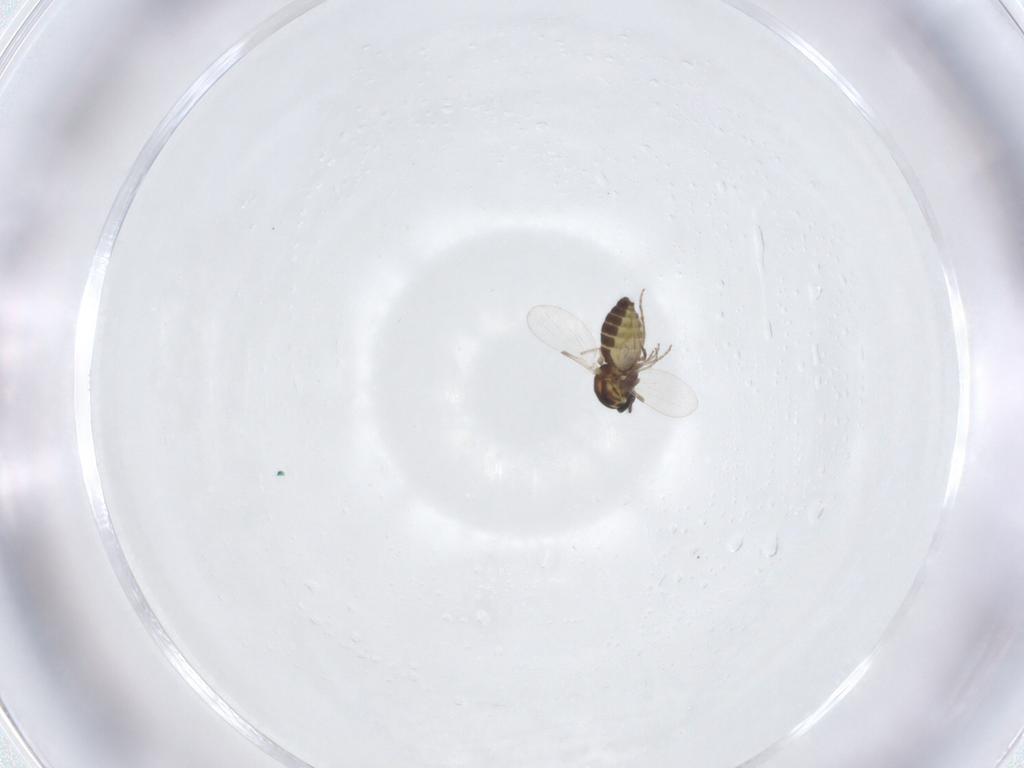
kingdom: Animalia
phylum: Arthropoda
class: Insecta
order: Diptera
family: Ceratopogonidae
